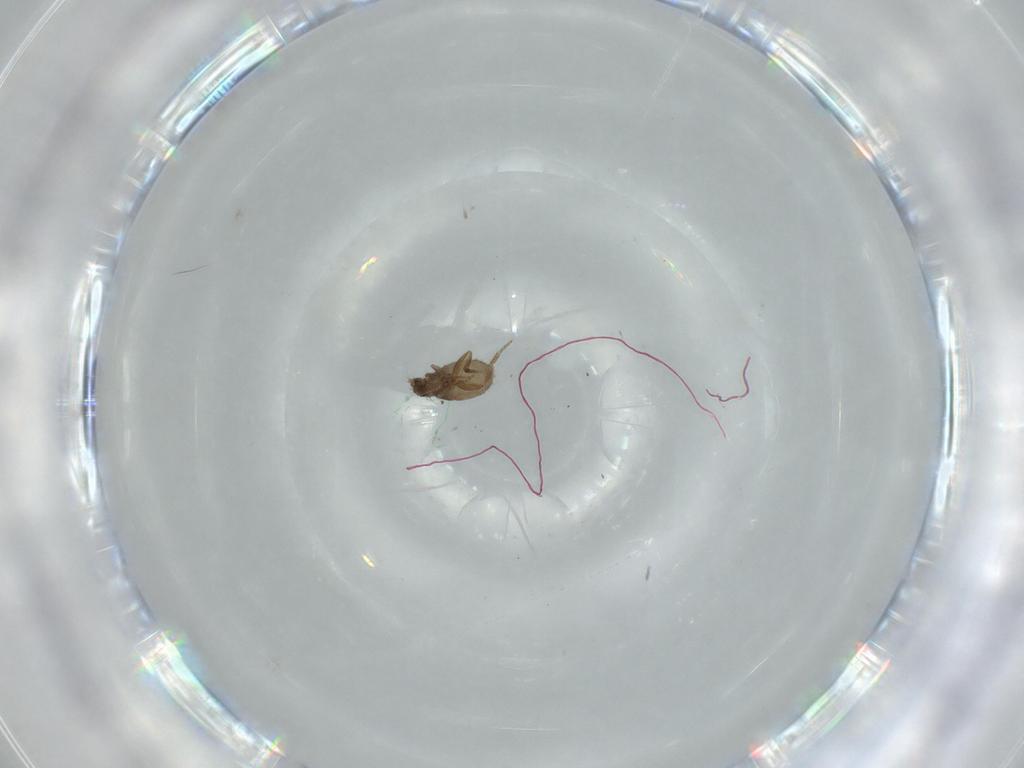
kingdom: Animalia
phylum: Arthropoda
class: Insecta
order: Diptera
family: Phoridae
